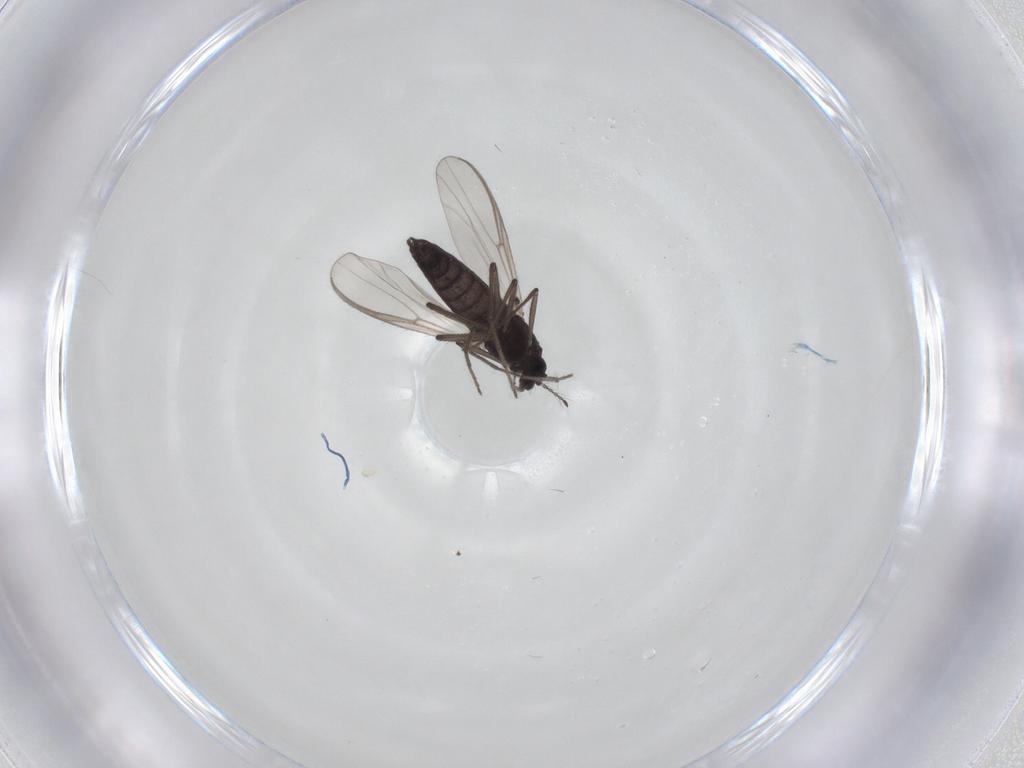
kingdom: Animalia
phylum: Arthropoda
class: Insecta
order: Diptera
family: Chironomidae
